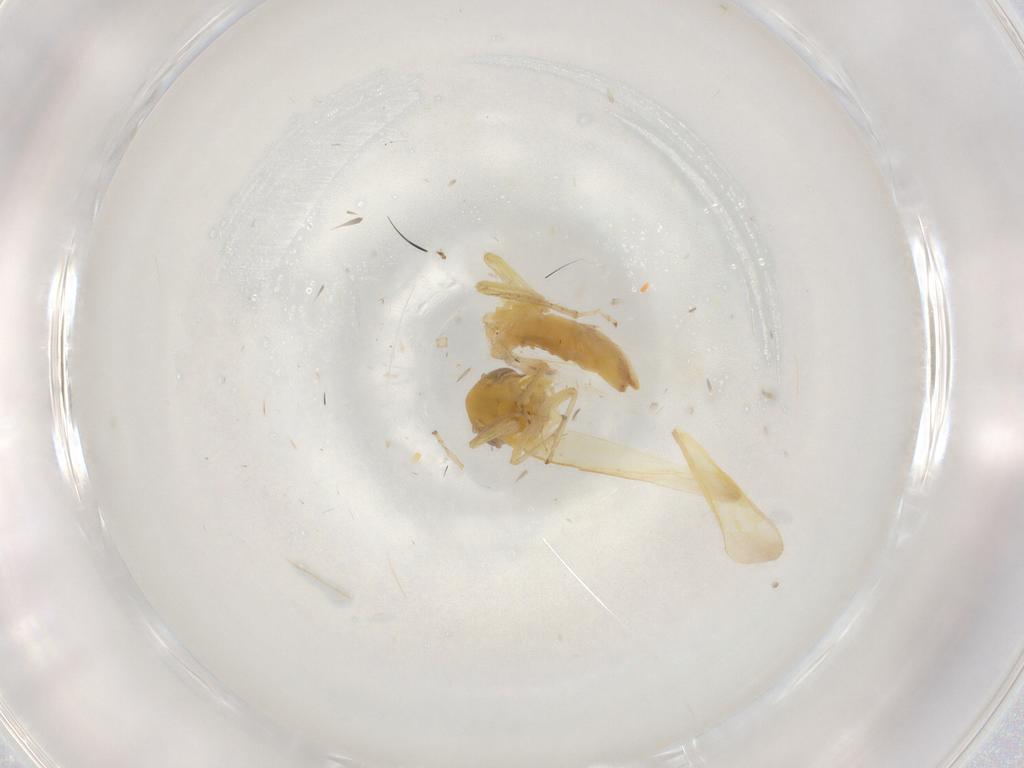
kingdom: Animalia
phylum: Arthropoda
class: Insecta
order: Hemiptera
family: Cicadellidae
